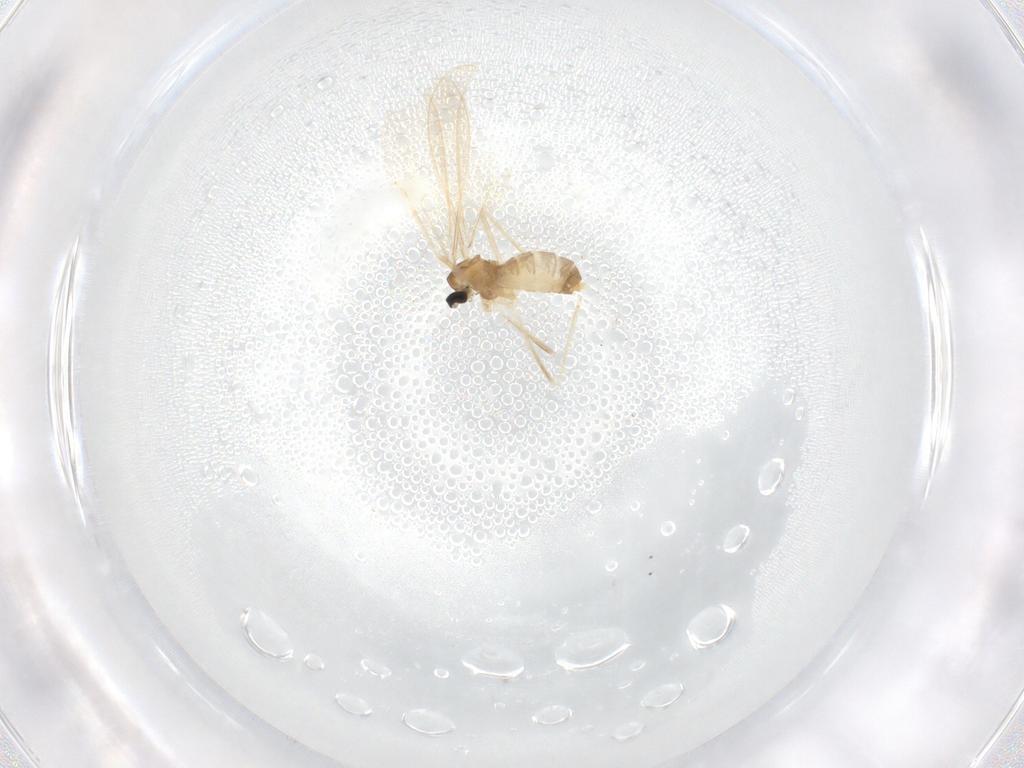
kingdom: Animalia
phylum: Arthropoda
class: Insecta
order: Diptera
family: Cecidomyiidae
